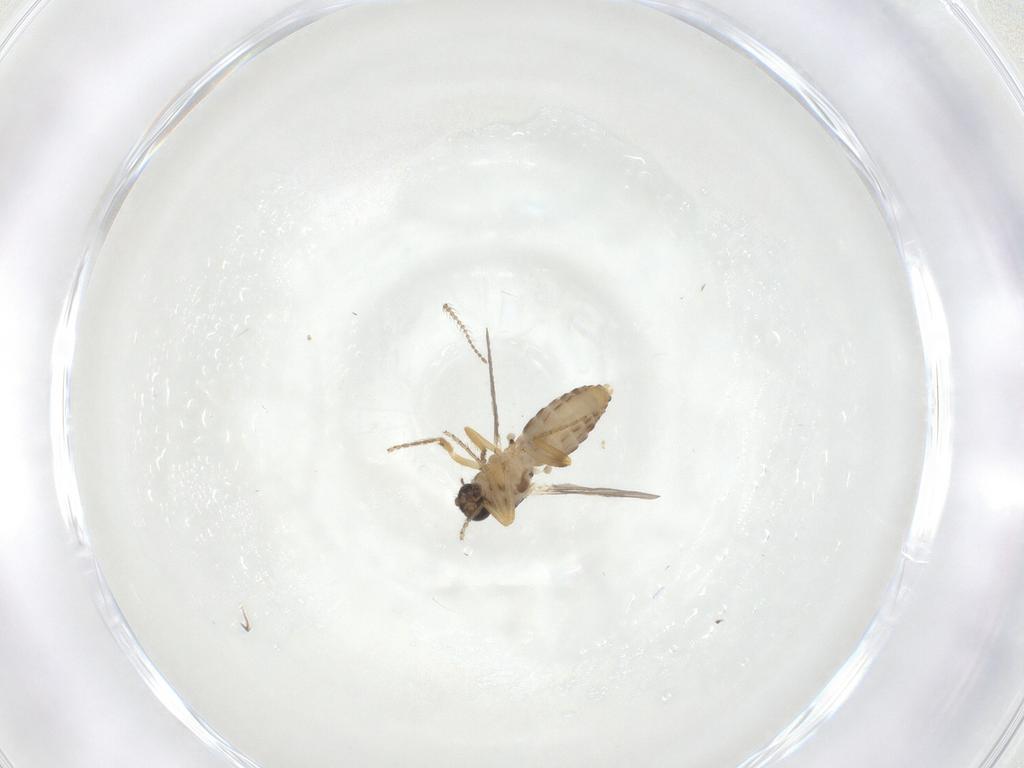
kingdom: Animalia
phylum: Arthropoda
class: Insecta
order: Diptera
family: Ceratopogonidae
